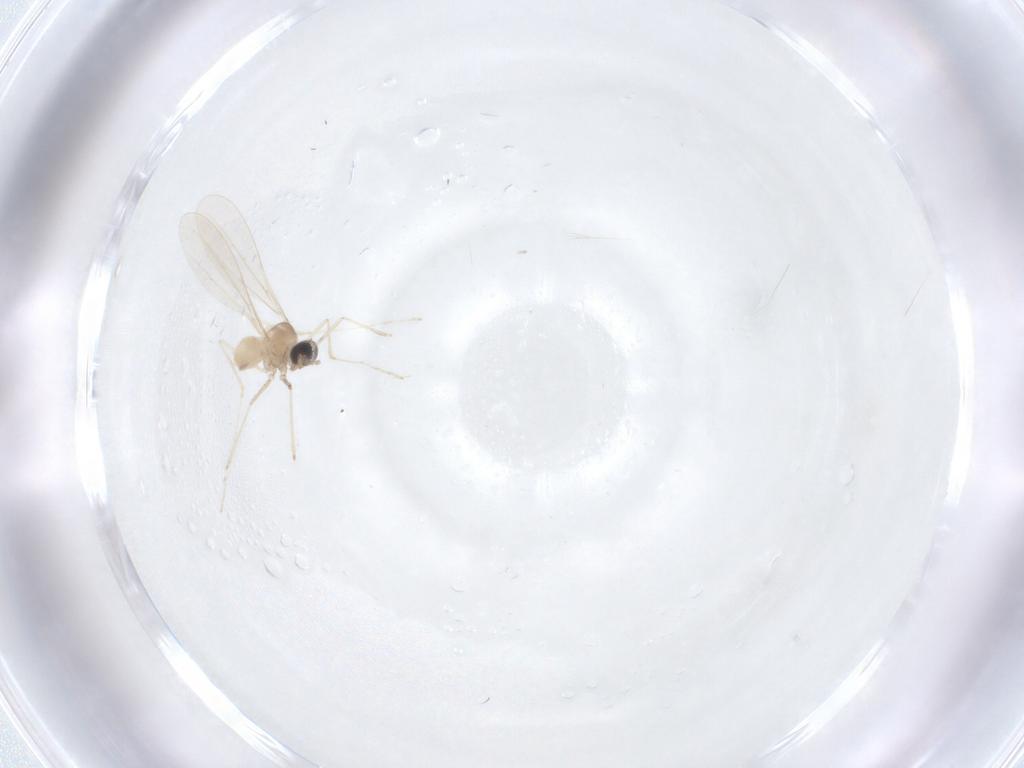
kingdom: Animalia
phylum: Arthropoda
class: Insecta
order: Diptera
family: Cecidomyiidae
